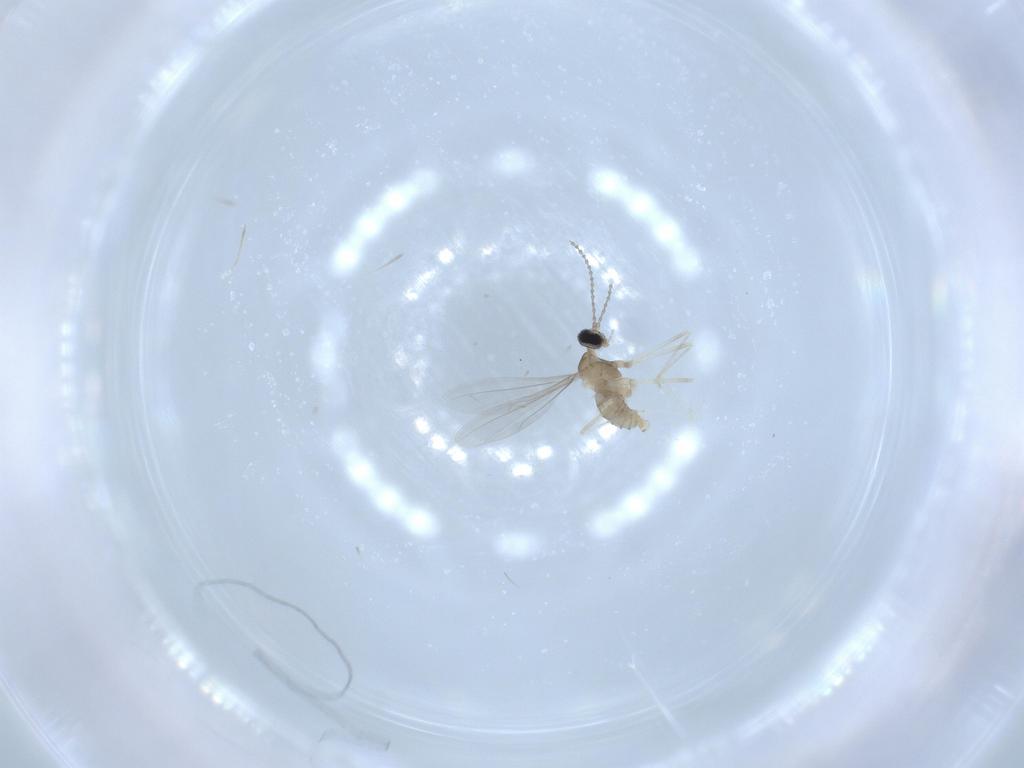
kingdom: Animalia
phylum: Arthropoda
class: Insecta
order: Diptera
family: Cecidomyiidae
